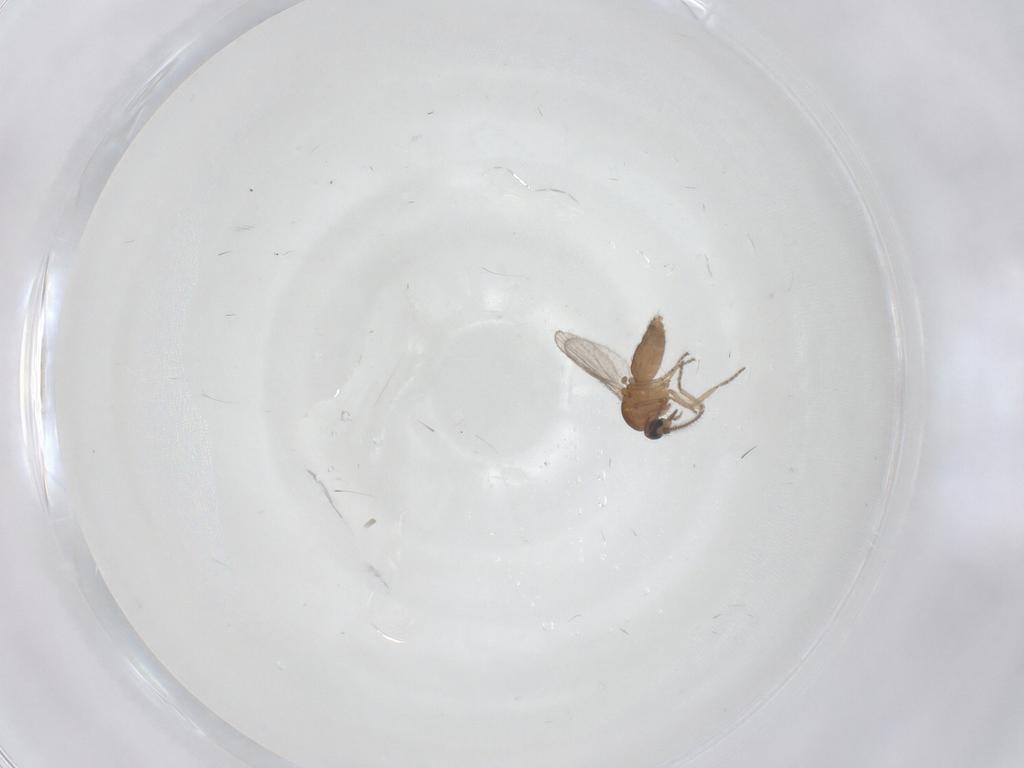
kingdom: Animalia
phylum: Arthropoda
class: Insecta
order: Diptera
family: Ceratopogonidae
